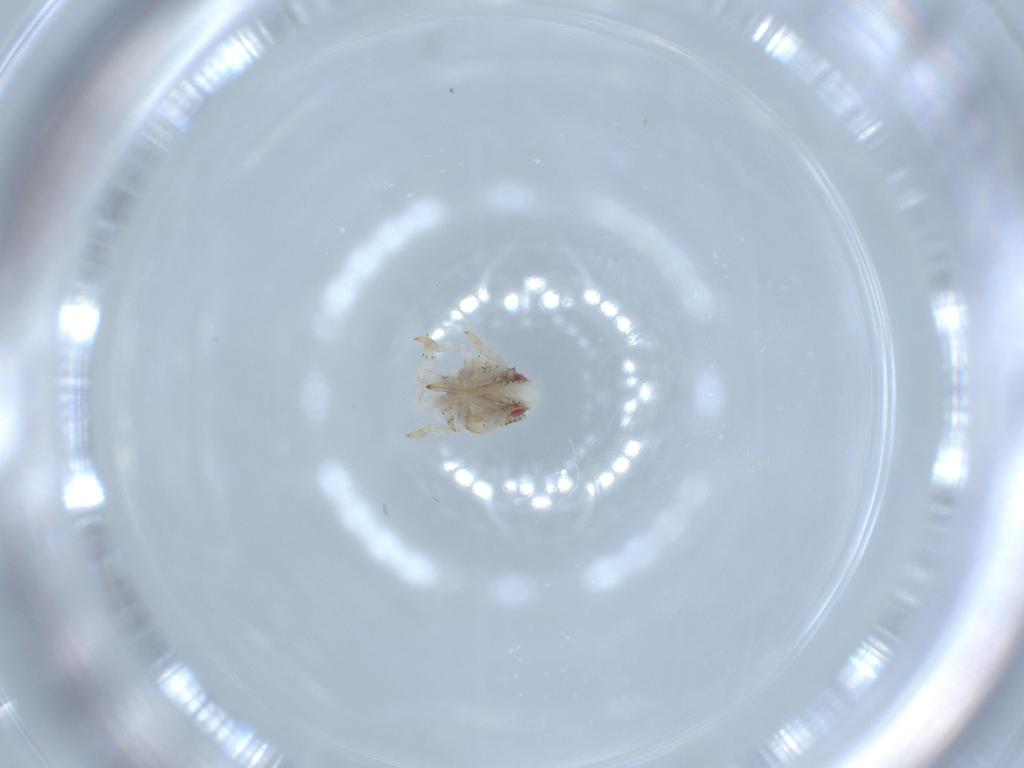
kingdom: Animalia
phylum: Arthropoda
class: Insecta
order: Hemiptera
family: Acanaloniidae
